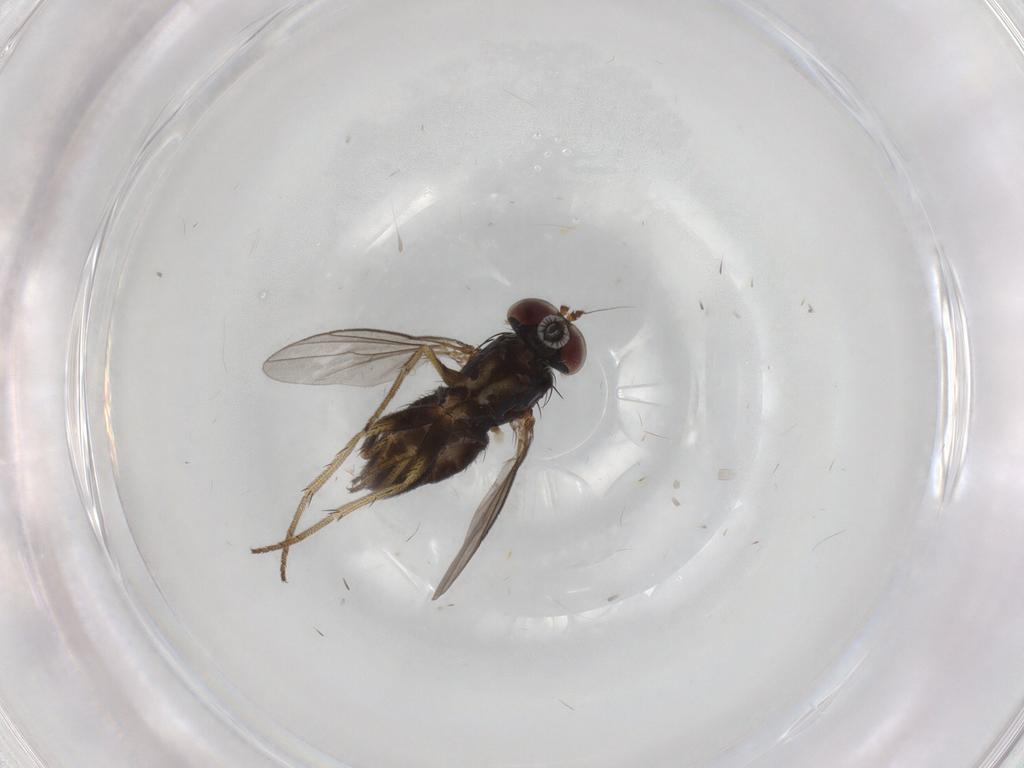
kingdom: Animalia
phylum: Arthropoda
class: Insecta
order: Diptera
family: Dolichopodidae
